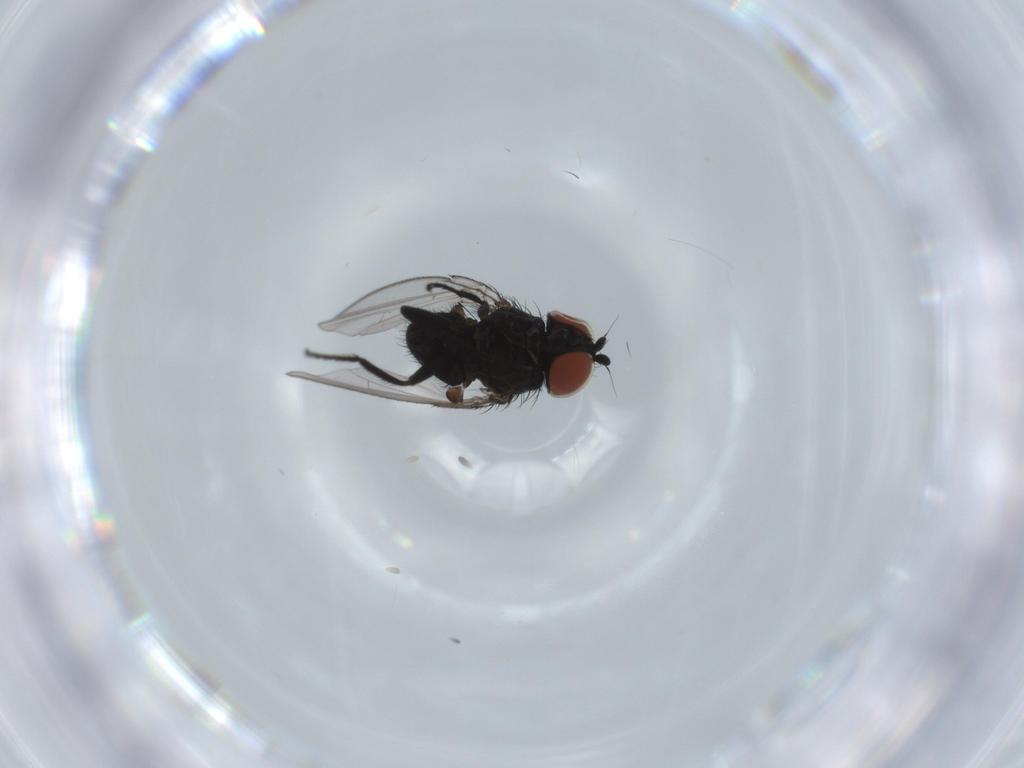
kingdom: Animalia
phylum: Arthropoda
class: Insecta
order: Diptera
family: Milichiidae
